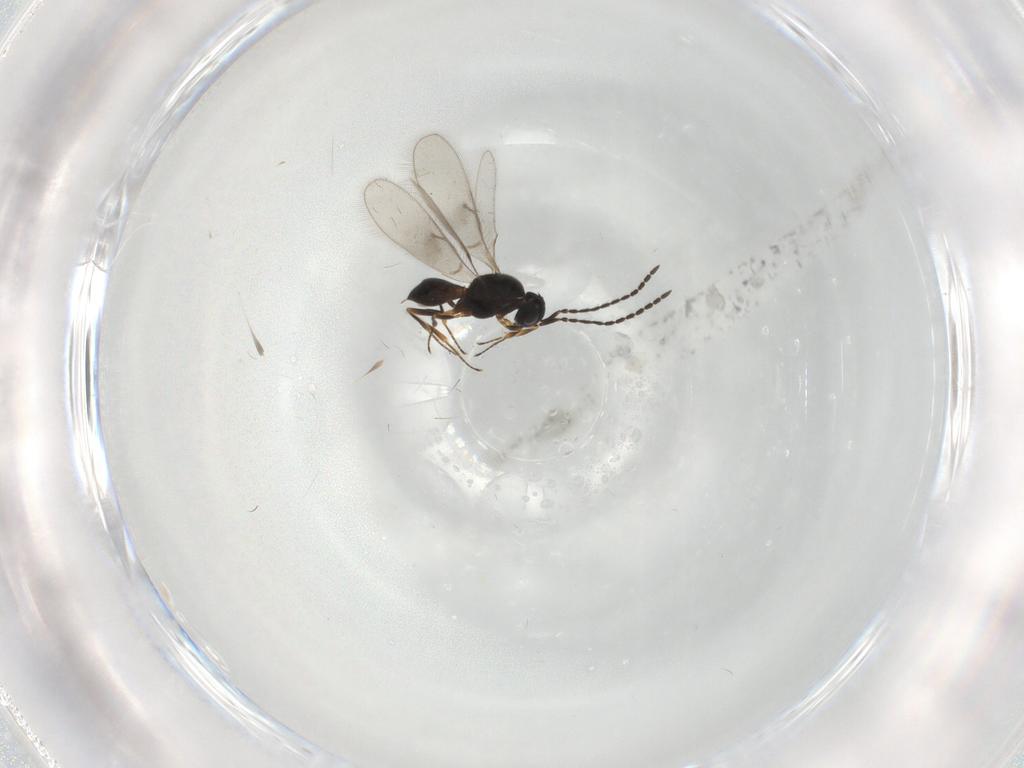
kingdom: Animalia
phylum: Arthropoda
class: Insecta
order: Hymenoptera
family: Scelionidae
